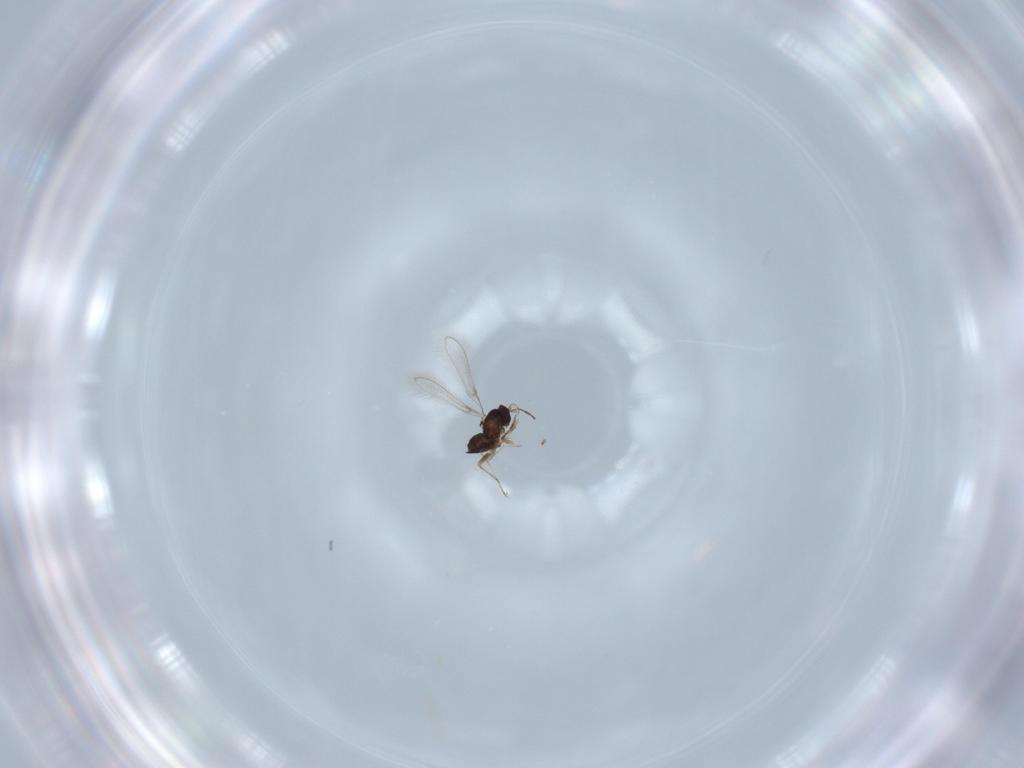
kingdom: Animalia
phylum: Arthropoda
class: Insecta
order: Hymenoptera
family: Mymaridae
